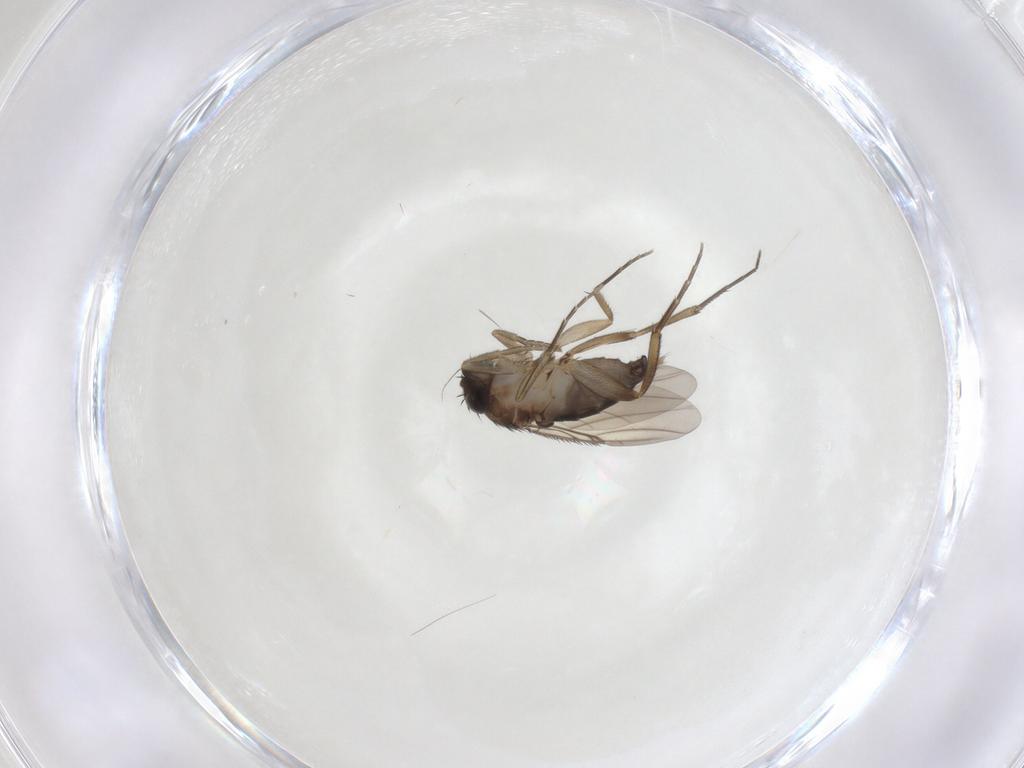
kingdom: Animalia
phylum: Arthropoda
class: Insecta
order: Diptera
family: Phoridae
